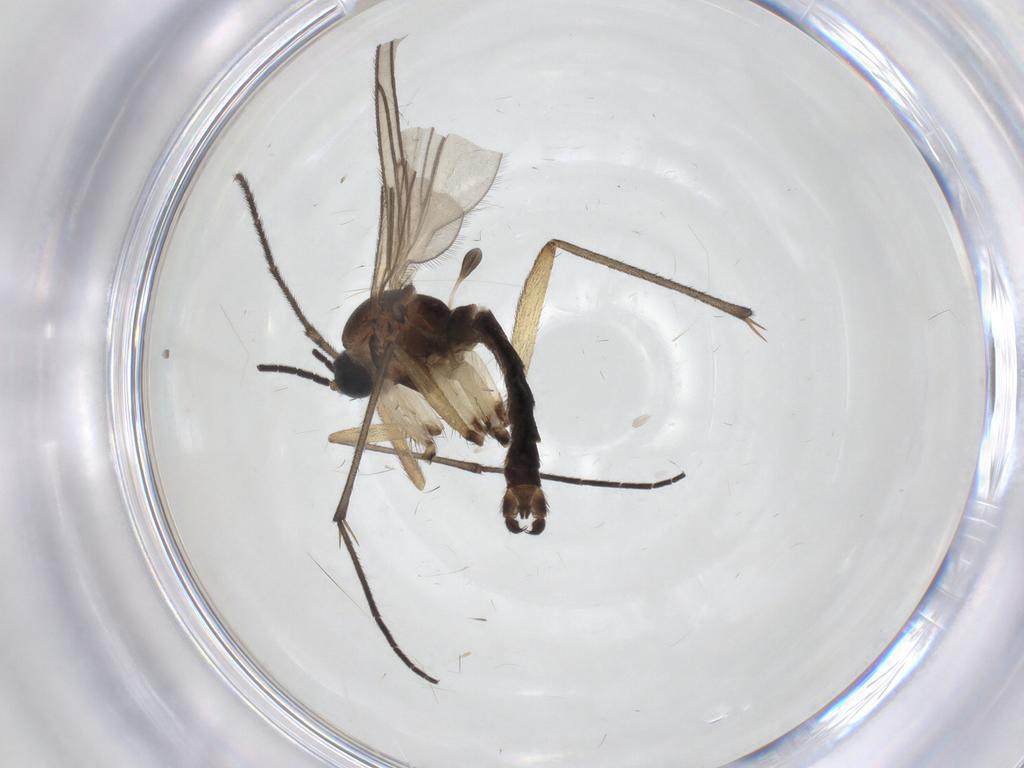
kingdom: Animalia
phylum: Arthropoda
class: Insecta
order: Diptera
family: Sciaridae
